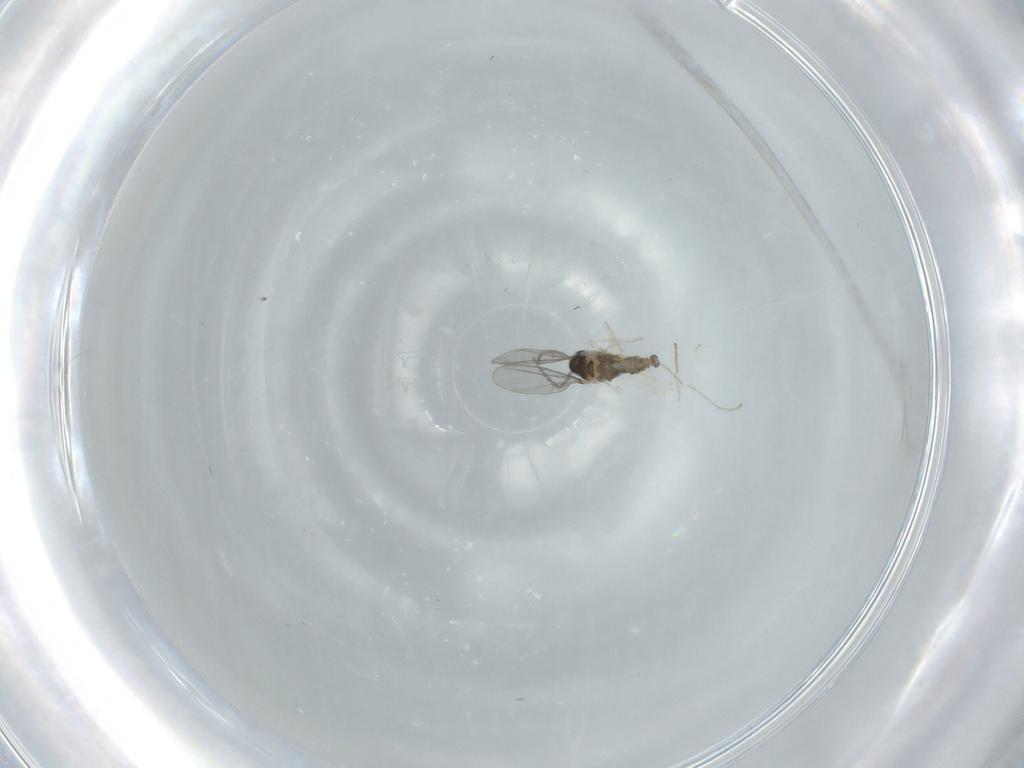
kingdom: Animalia
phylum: Arthropoda
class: Insecta
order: Diptera
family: Cecidomyiidae
